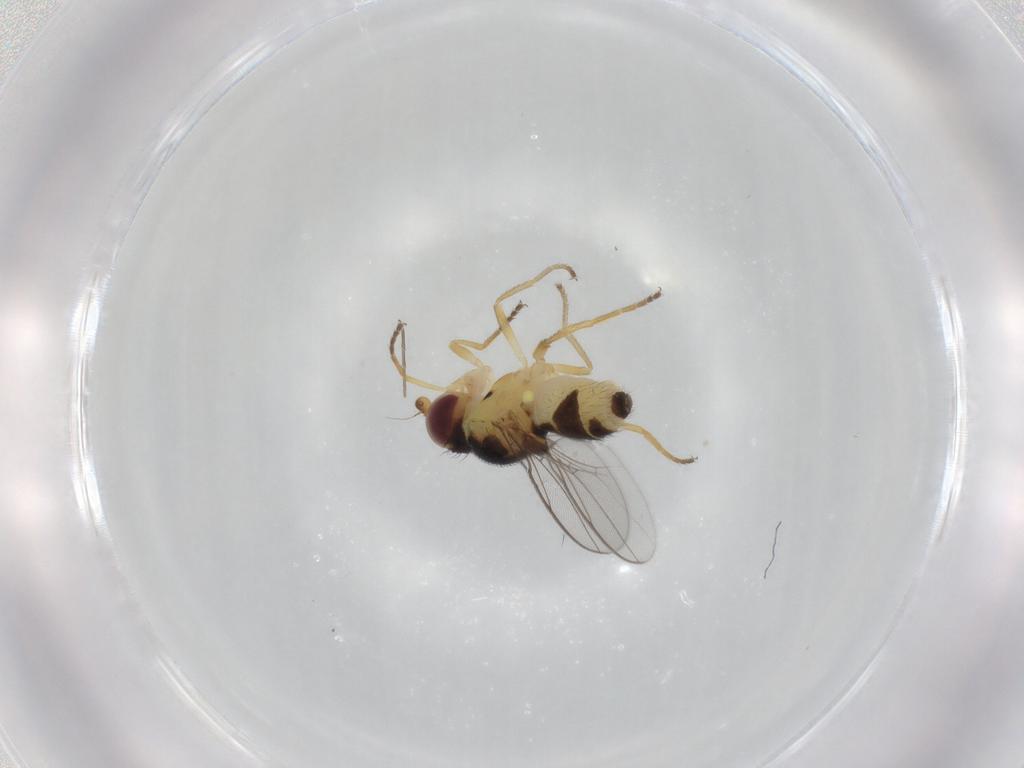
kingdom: Animalia
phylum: Arthropoda
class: Insecta
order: Diptera
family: Chloropidae
